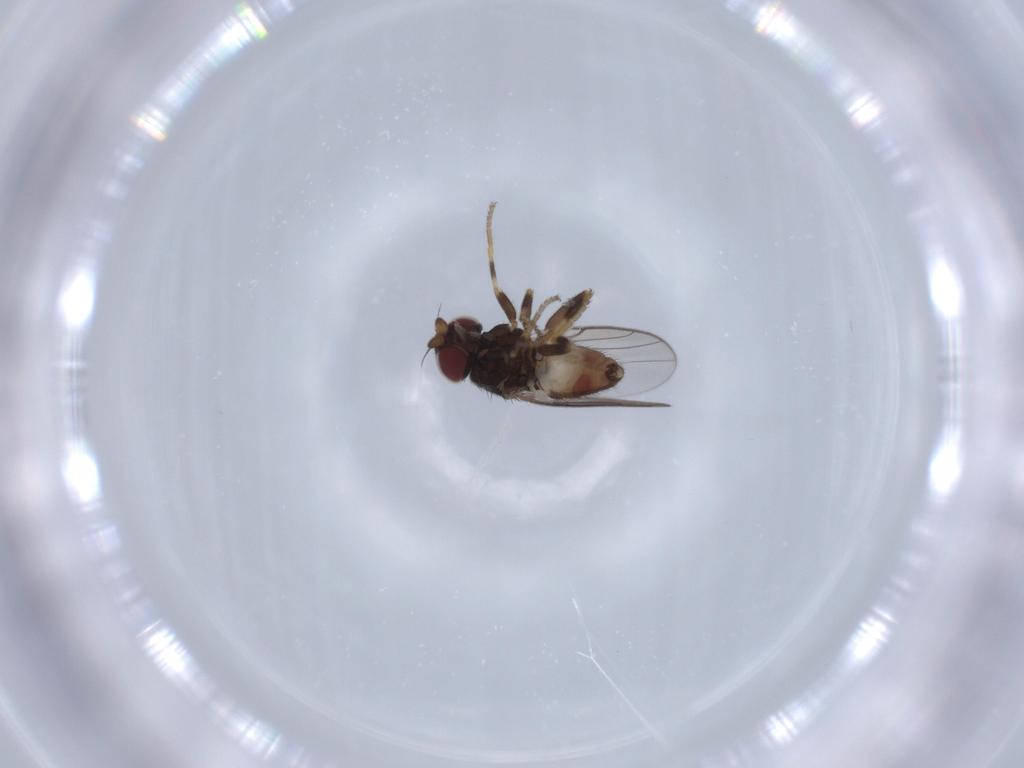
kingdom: Animalia
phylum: Arthropoda
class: Insecta
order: Diptera
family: Chloropidae
